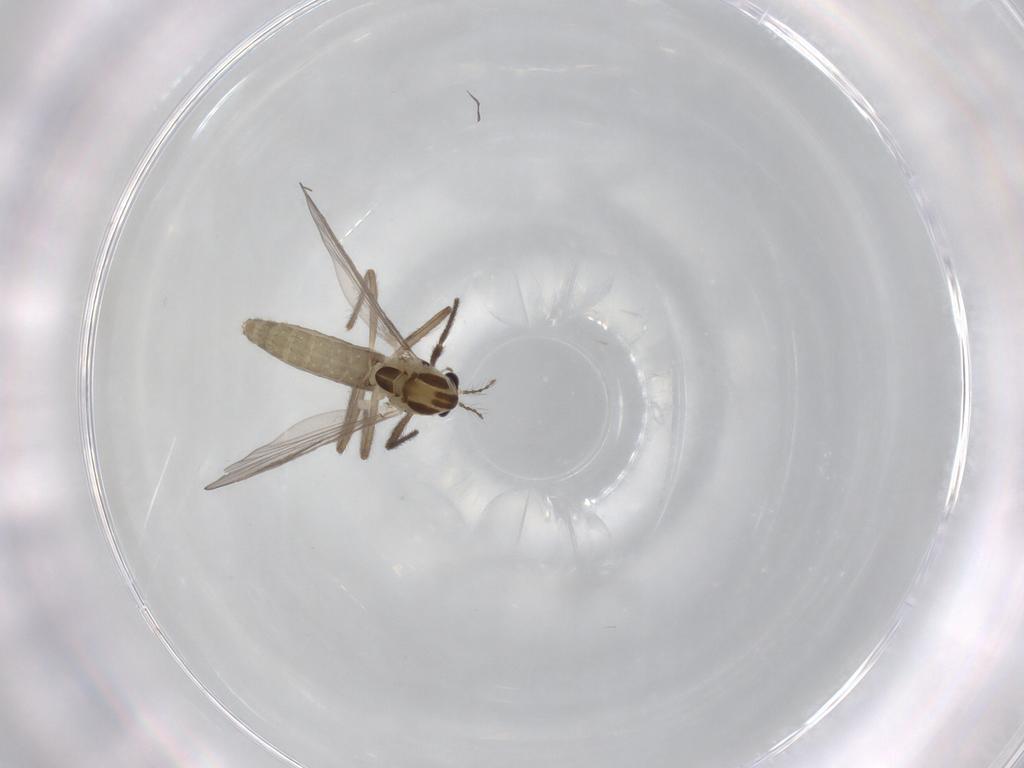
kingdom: Animalia
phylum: Arthropoda
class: Insecta
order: Diptera
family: Chironomidae
